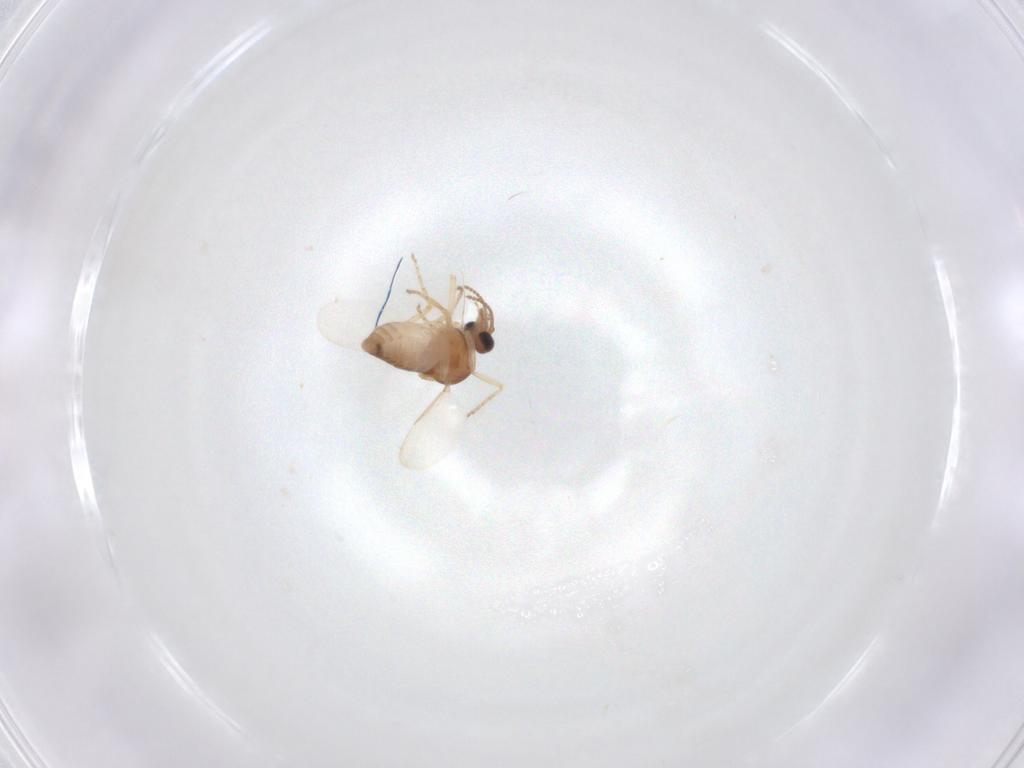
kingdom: Animalia
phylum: Arthropoda
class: Insecta
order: Diptera
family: Ceratopogonidae
